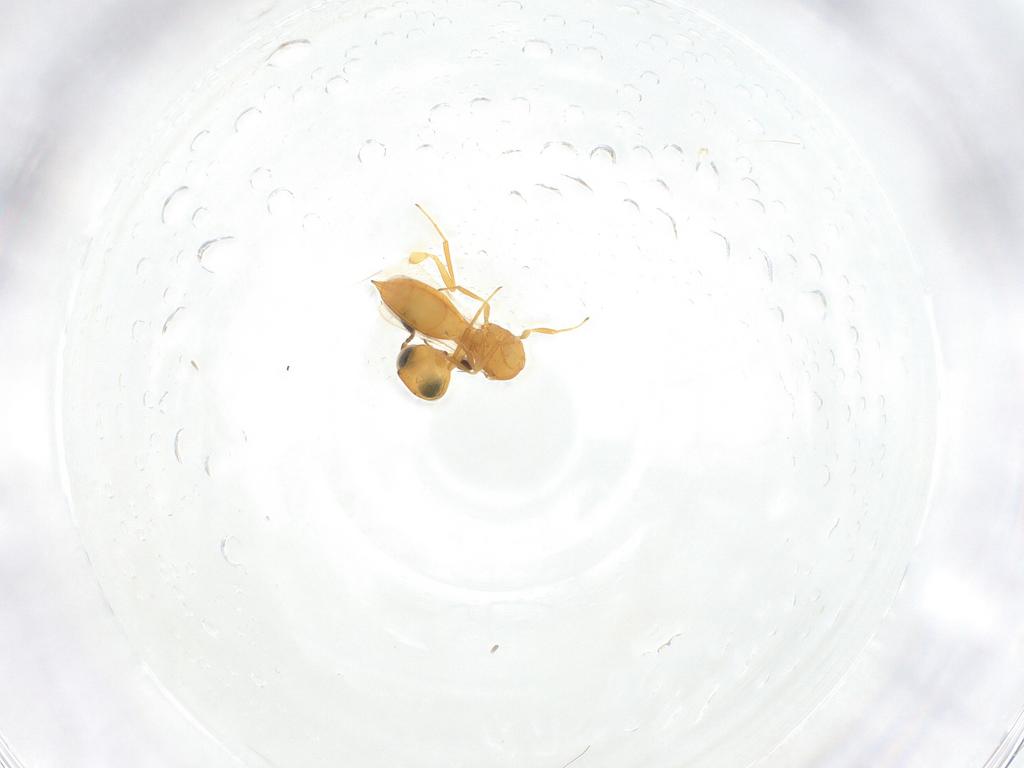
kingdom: Animalia
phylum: Arthropoda
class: Insecta
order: Hymenoptera
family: Scelionidae
